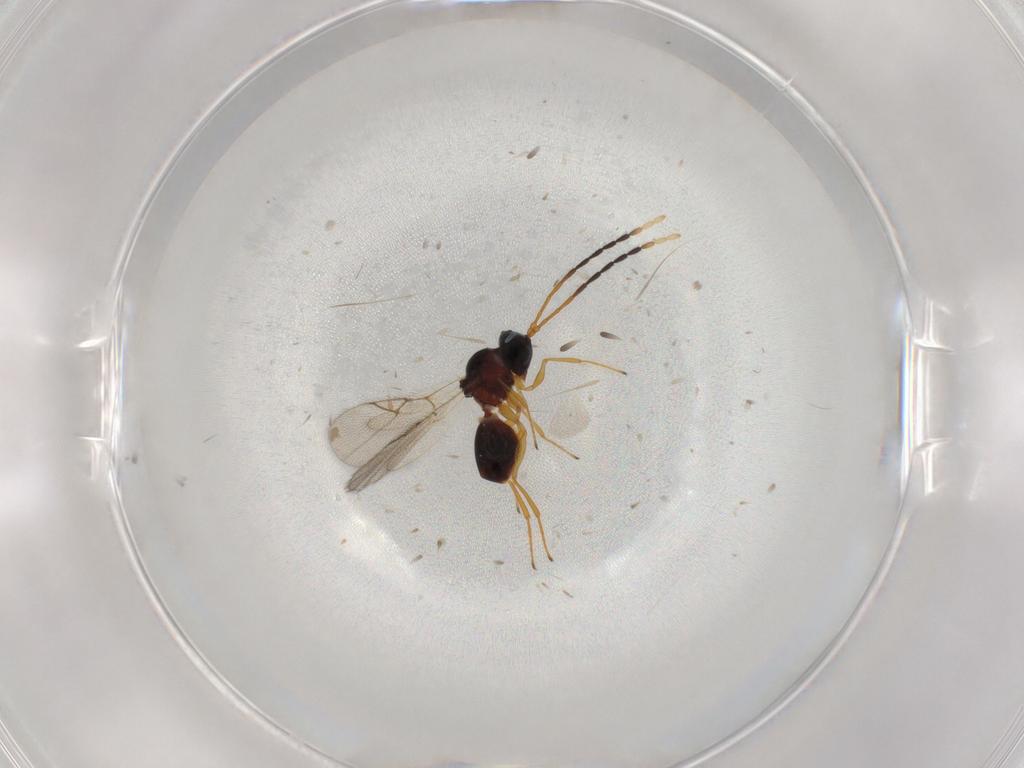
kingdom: Animalia
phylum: Arthropoda
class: Insecta
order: Hymenoptera
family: Figitidae
